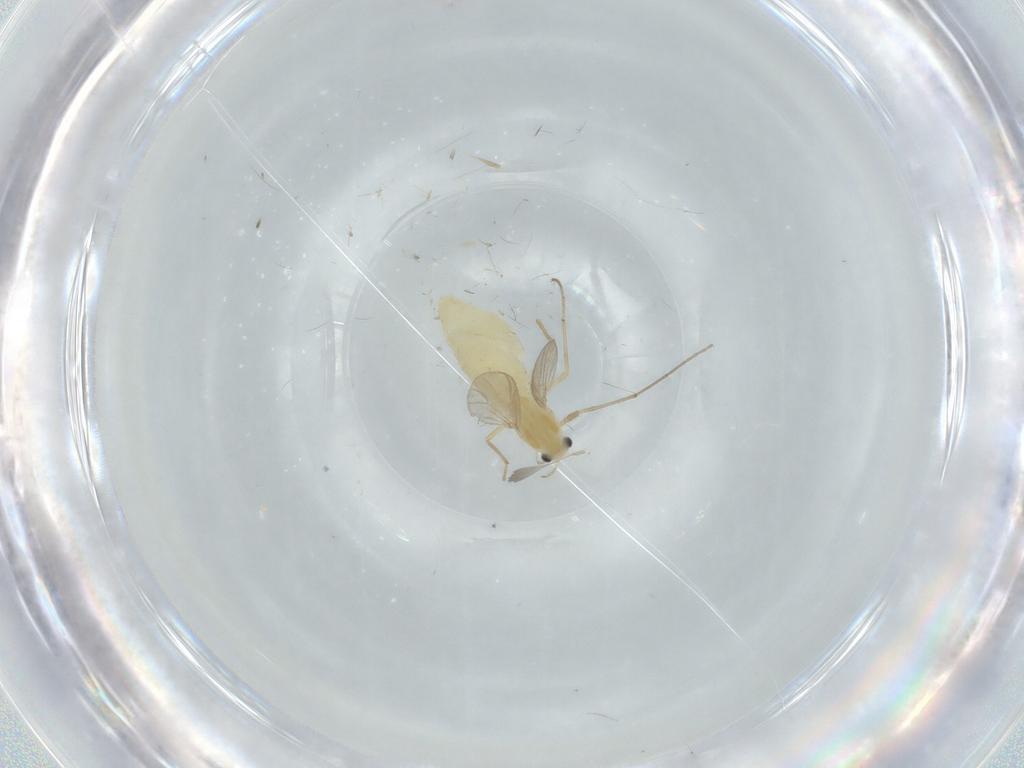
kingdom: Animalia
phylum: Arthropoda
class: Insecta
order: Diptera
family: Chironomidae
